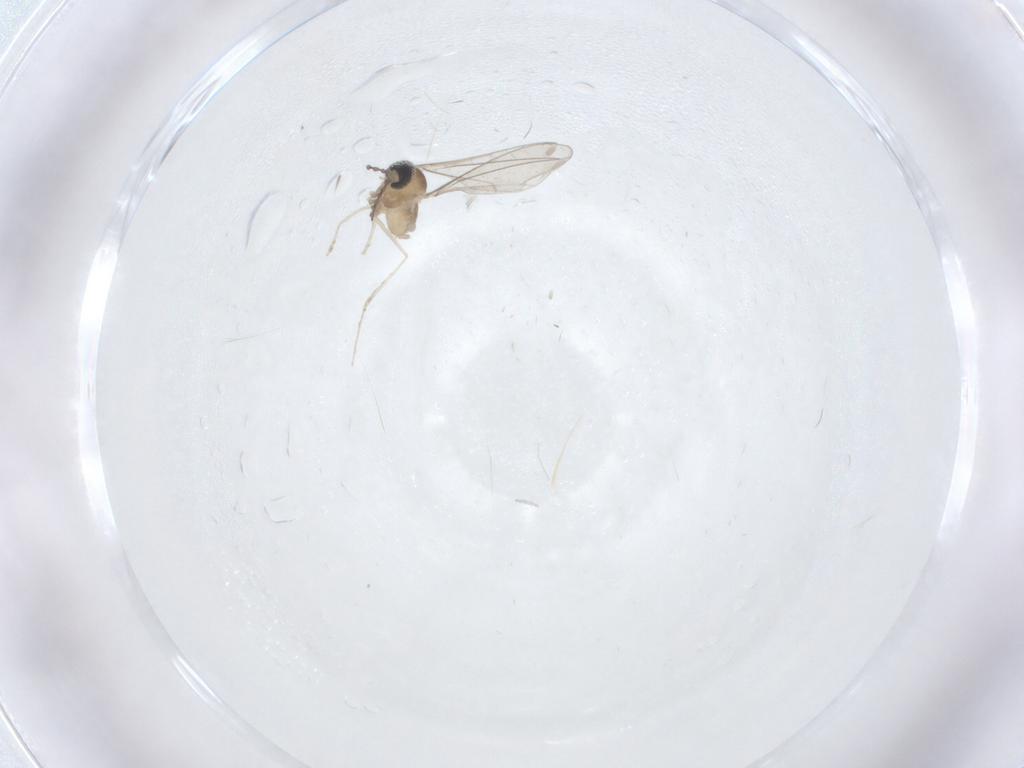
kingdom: Animalia
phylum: Arthropoda
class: Insecta
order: Diptera
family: Cecidomyiidae
